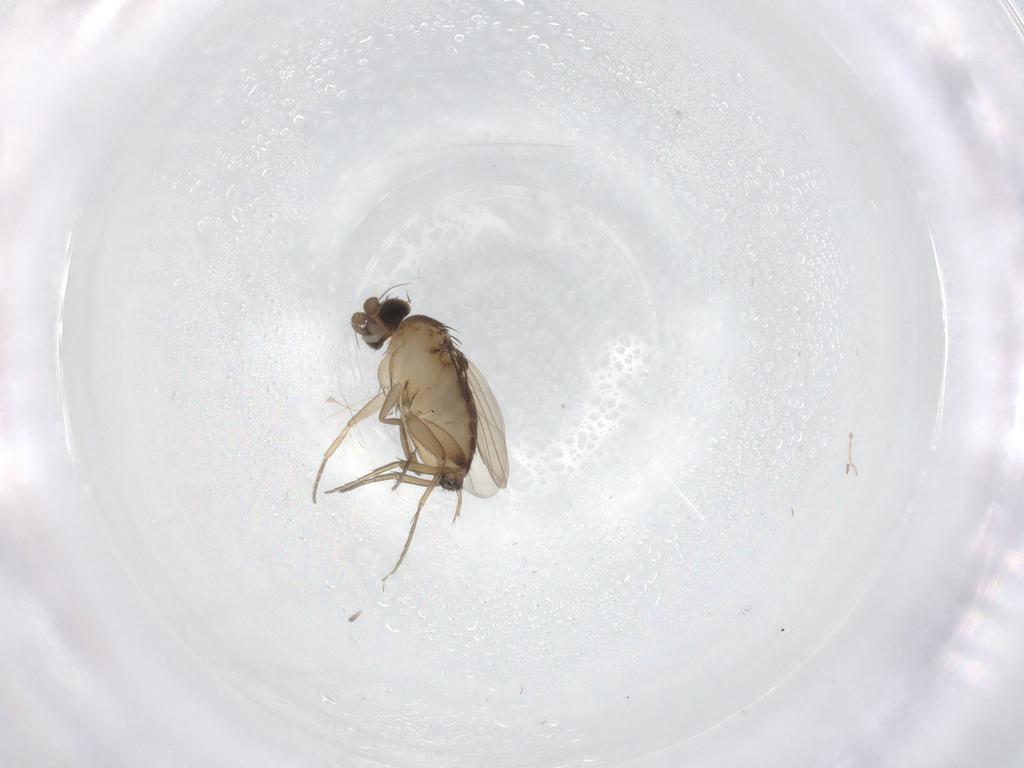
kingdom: Animalia
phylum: Arthropoda
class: Insecta
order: Diptera
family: Phoridae
